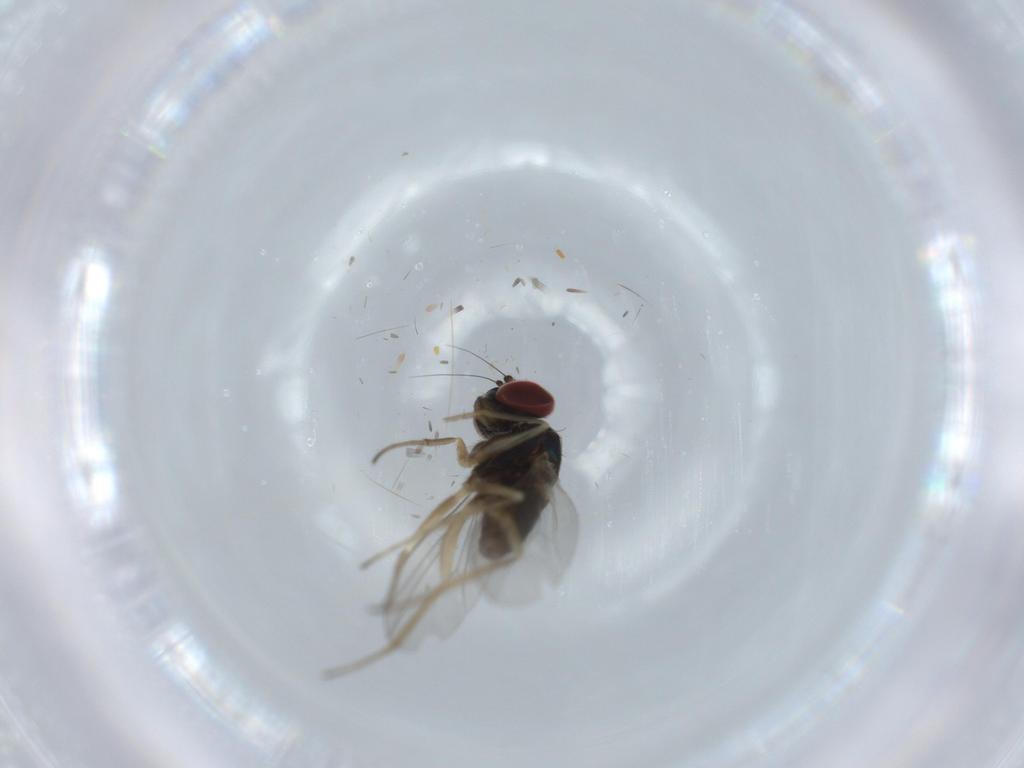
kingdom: Animalia
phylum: Arthropoda
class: Insecta
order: Diptera
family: Dolichopodidae
